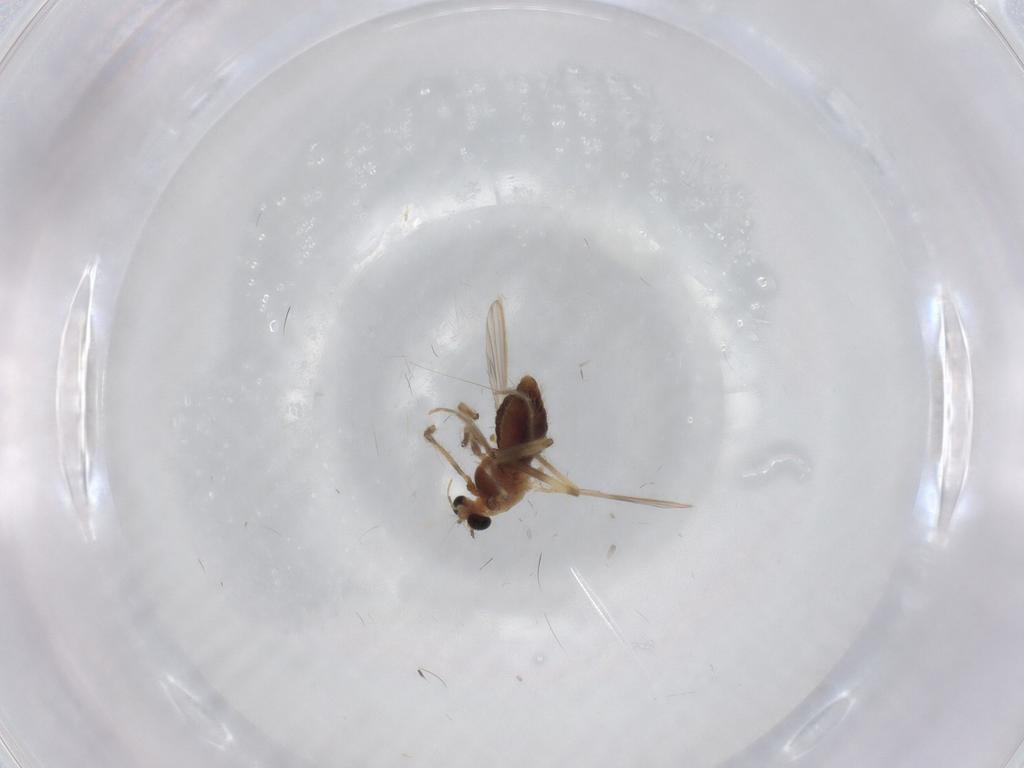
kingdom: Animalia
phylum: Arthropoda
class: Insecta
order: Diptera
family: Chironomidae
